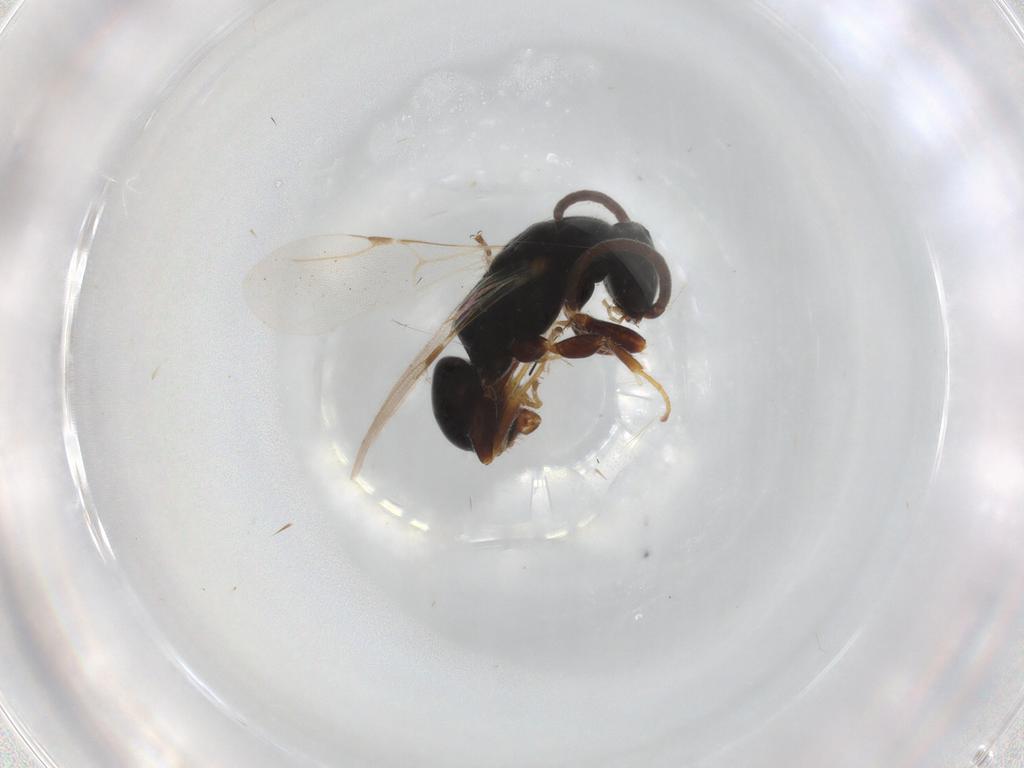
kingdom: Animalia
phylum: Arthropoda
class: Insecta
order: Hymenoptera
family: Bethylidae
